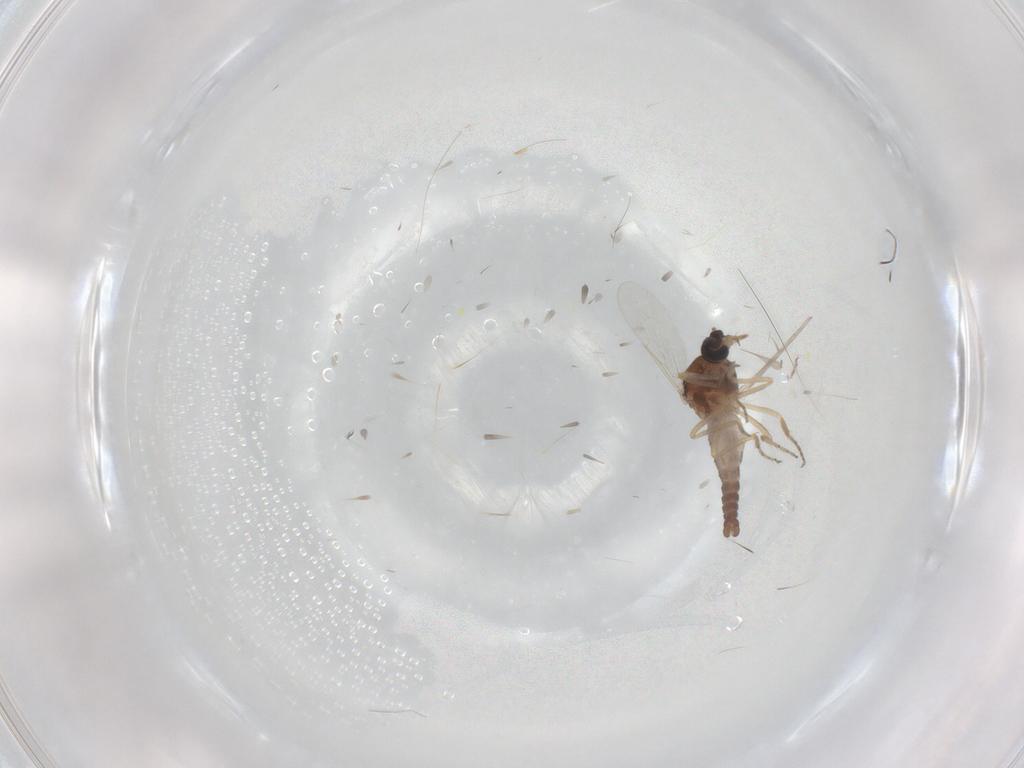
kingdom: Animalia
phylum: Arthropoda
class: Insecta
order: Diptera
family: Ceratopogonidae
